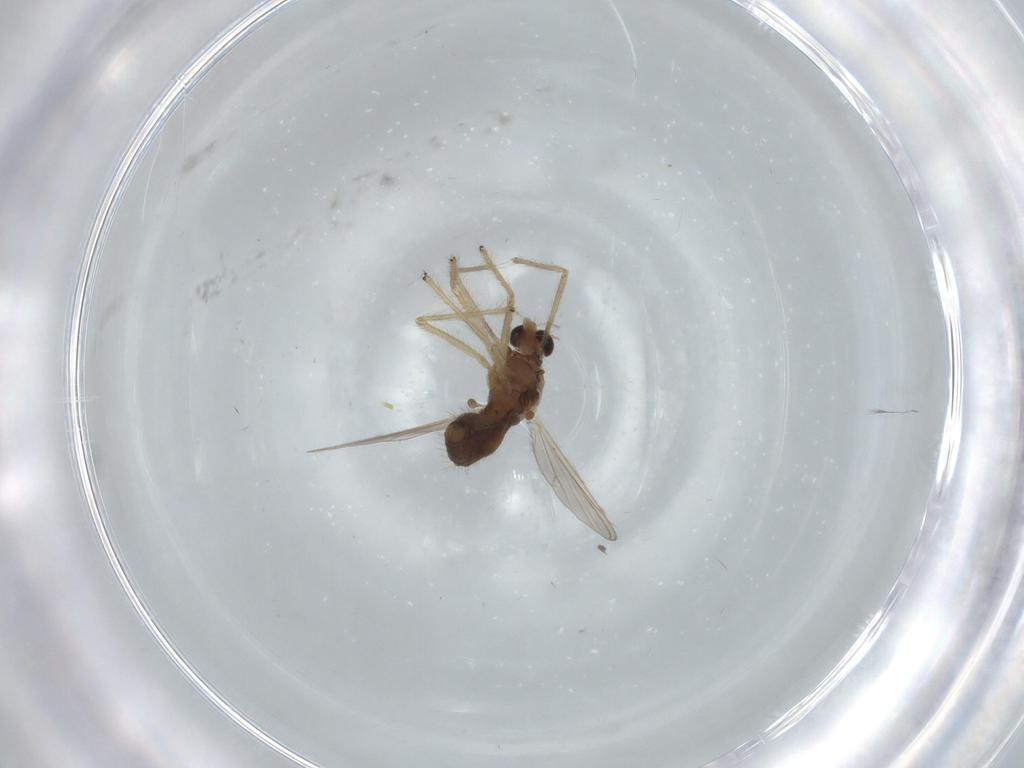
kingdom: Animalia
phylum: Arthropoda
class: Insecta
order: Diptera
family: Chironomidae
